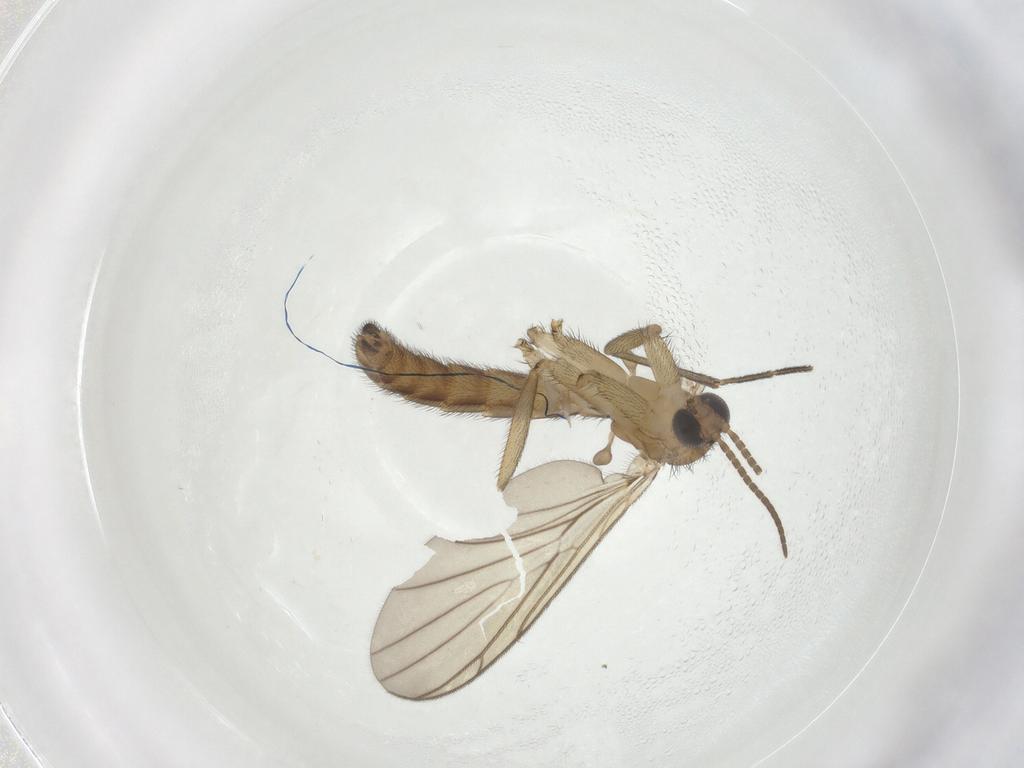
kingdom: Animalia
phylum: Arthropoda
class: Insecta
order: Diptera
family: Keroplatidae
